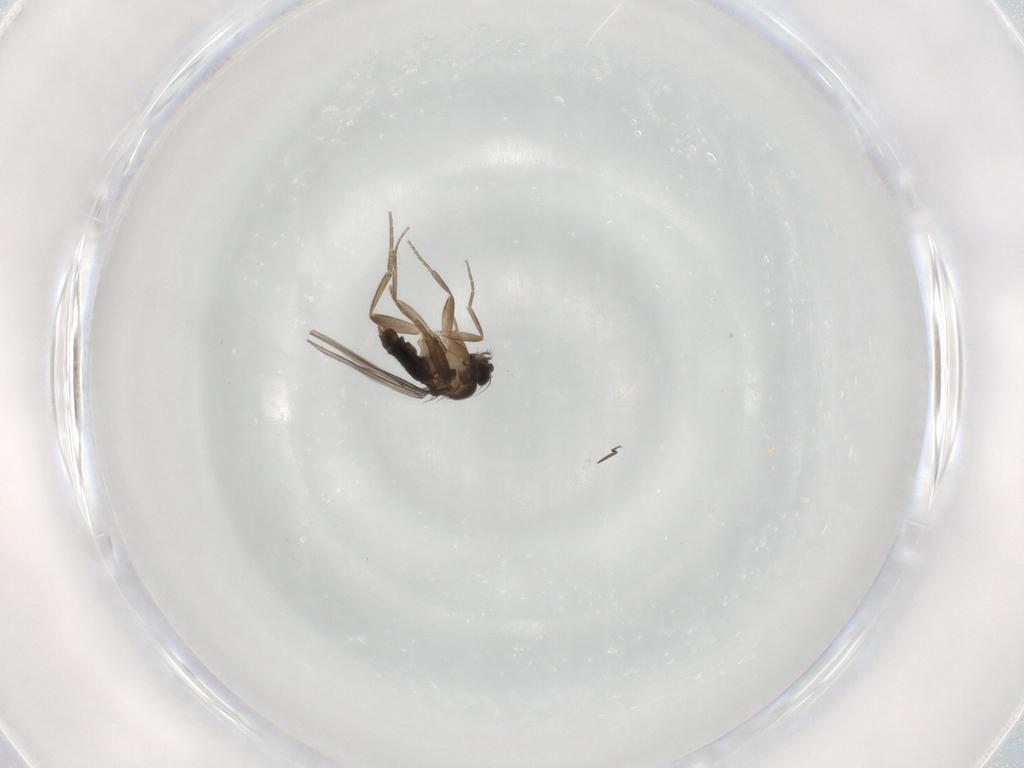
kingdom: Animalia
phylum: Arthropoda
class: Insecta
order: Diptera
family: Phoridae
